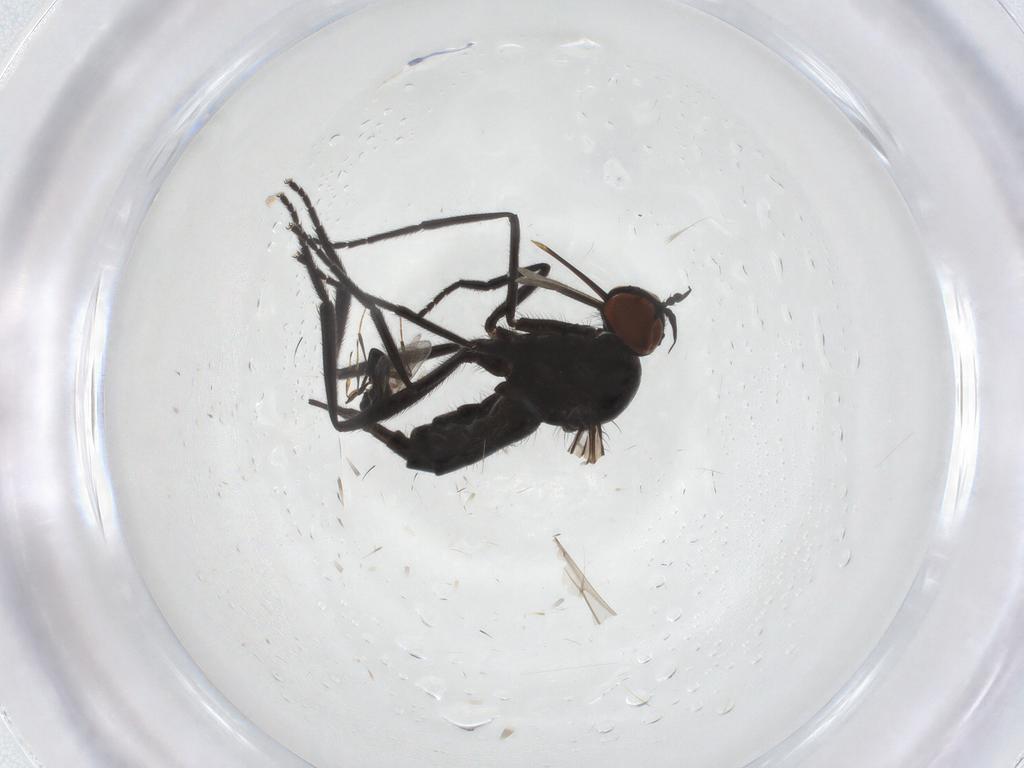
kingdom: Animalia
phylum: Arthropoda
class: Insecta
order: Diptera
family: Empididae
